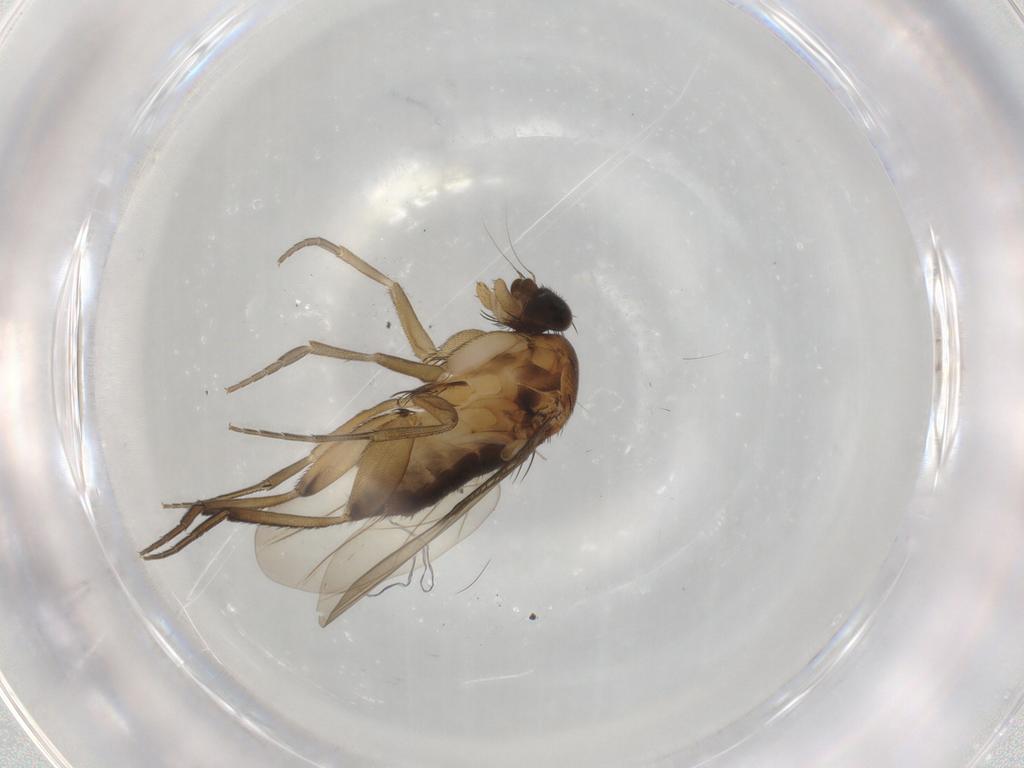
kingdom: Animalia
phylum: Arthropoda
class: Insecta
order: Diptera
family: Phoridae
